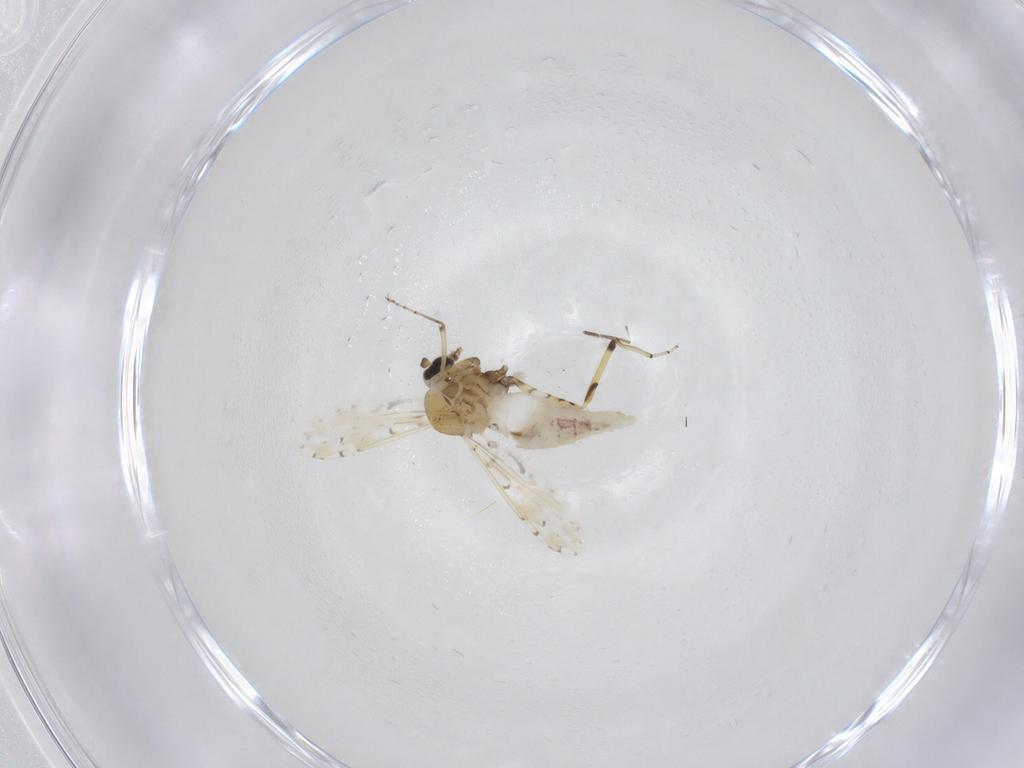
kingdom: Animalia
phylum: Arthropoda
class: Insecta
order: Diptera
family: Ceratopogonidae
